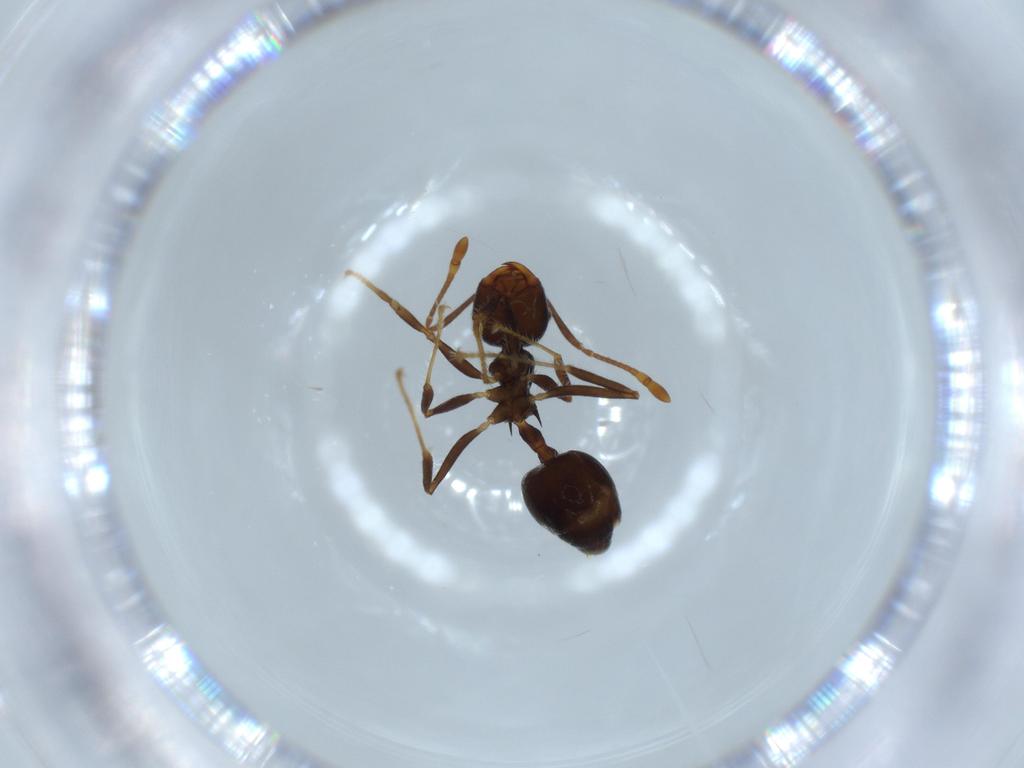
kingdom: Animalia
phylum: Arthropoda
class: Insecta
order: Hymenoptera
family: Formicidae
